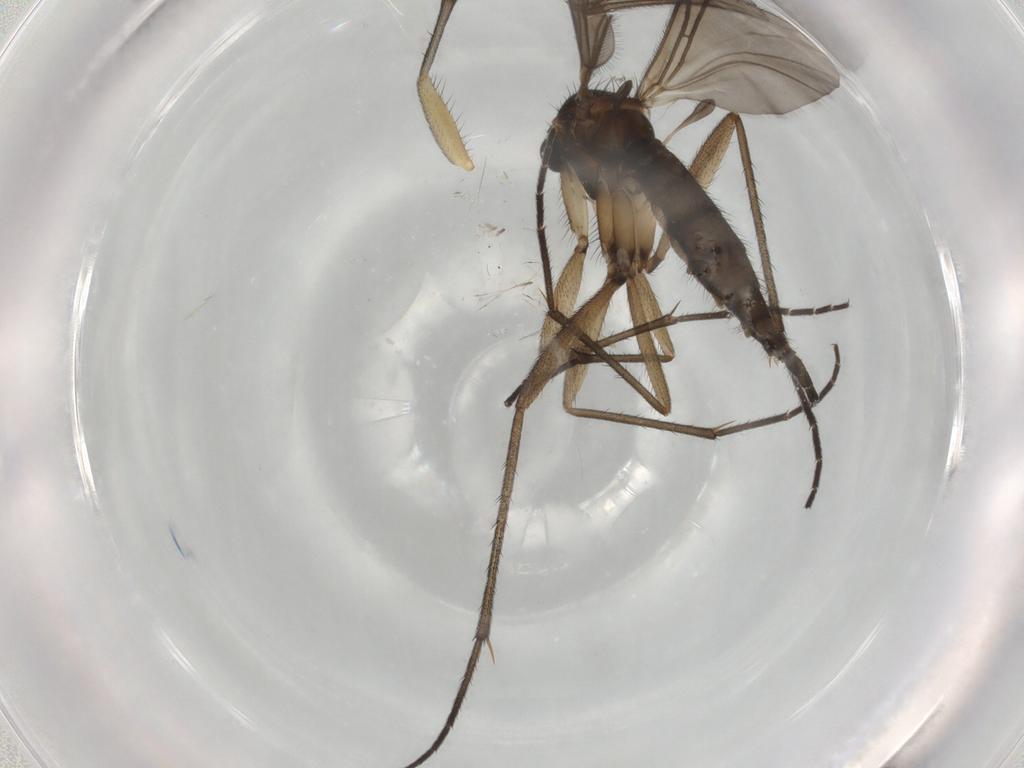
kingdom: Animalia
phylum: Arthropoda
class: Insecta
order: Diptera
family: Sciaridae
